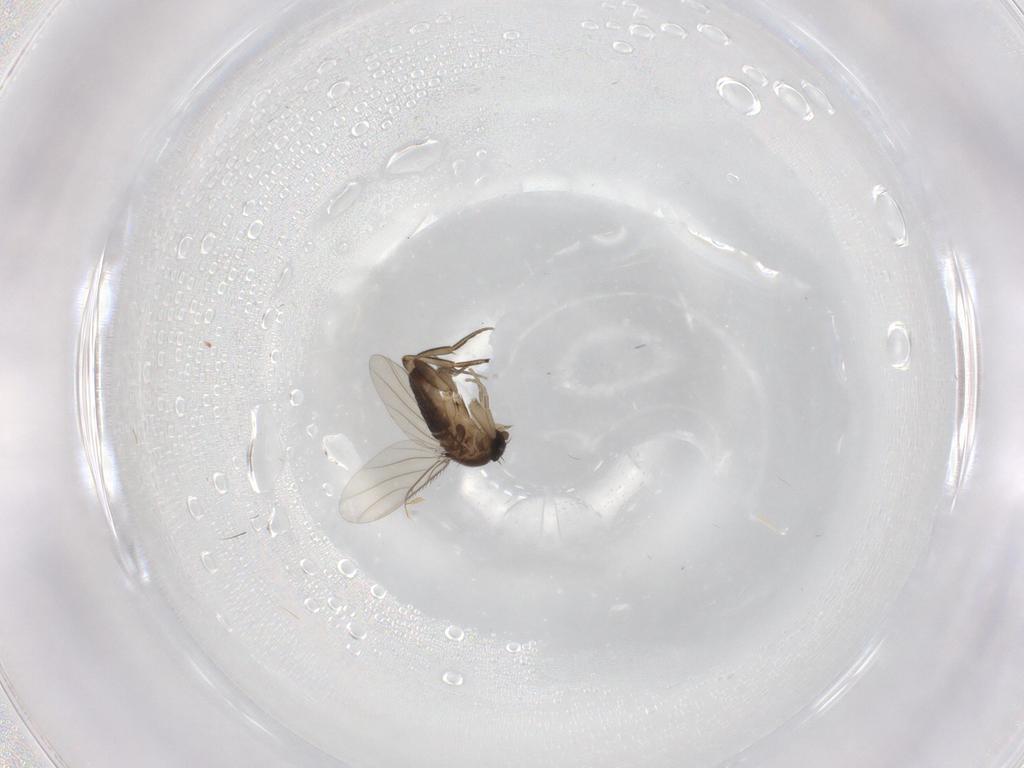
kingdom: Animalia
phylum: Arthropoda
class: Insecta
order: Diptera
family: Phoridae
